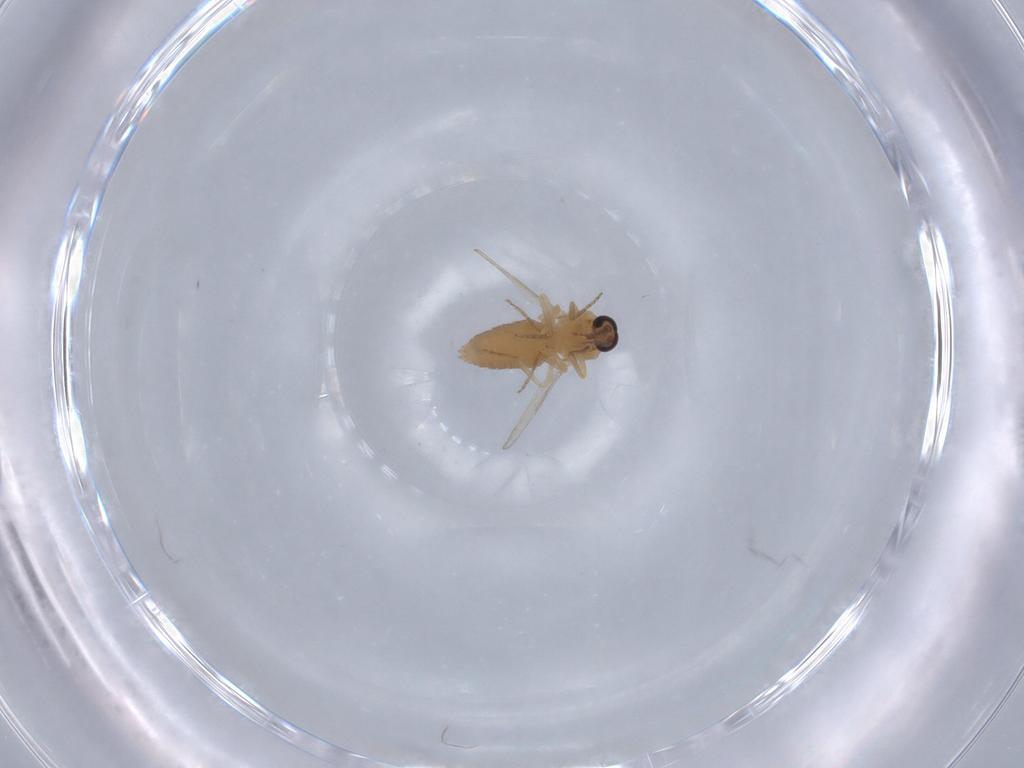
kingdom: Animalia
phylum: Arthropoda
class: Insecta
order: Diptera
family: Ceratopogonidae
